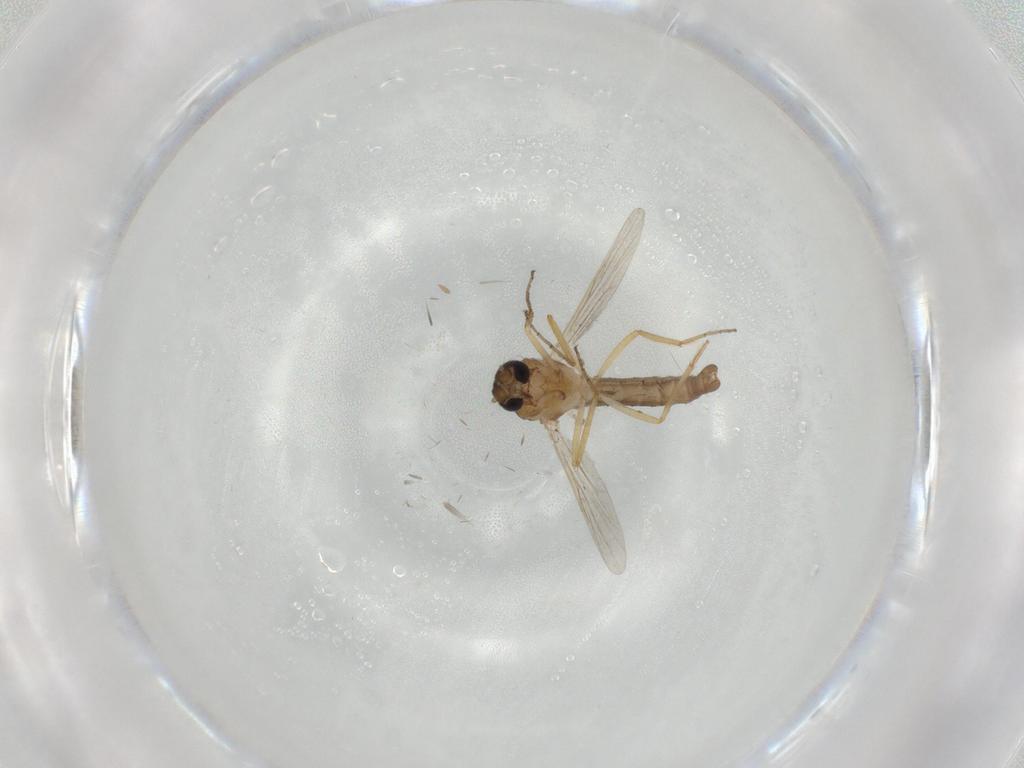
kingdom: Animalia
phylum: Arthropoda
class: Insecta
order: Diptera
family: Ceratopogonidae
